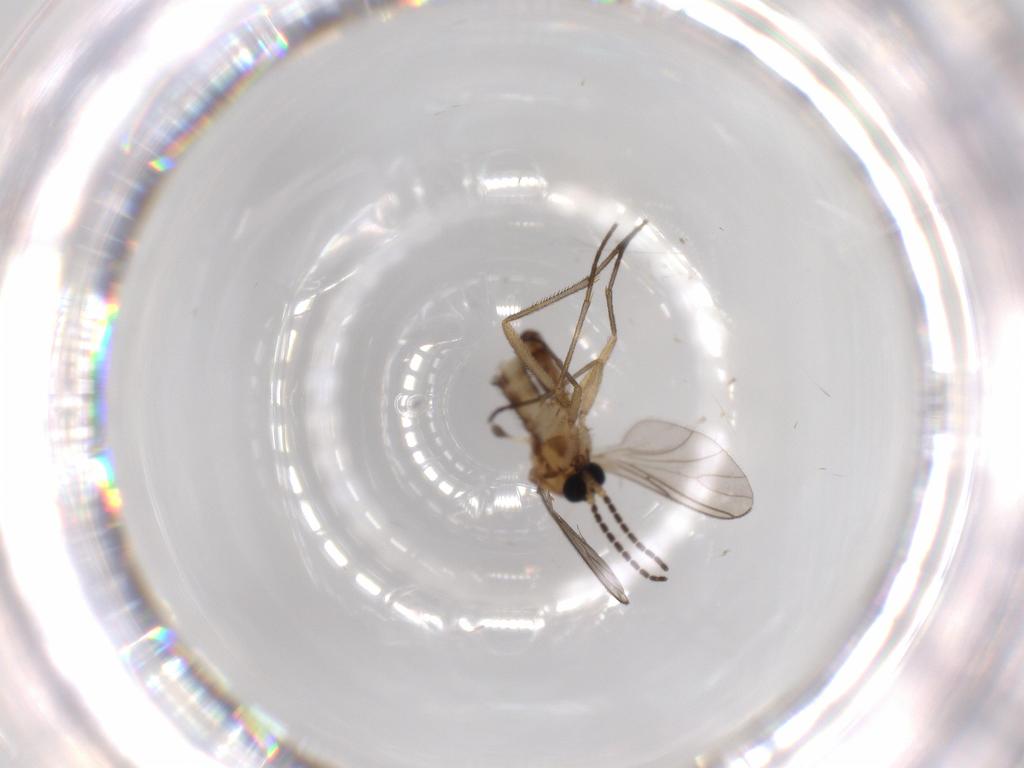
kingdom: Animalia
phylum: Arthropoda
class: Insecta
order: Diptera
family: Sciaridae
